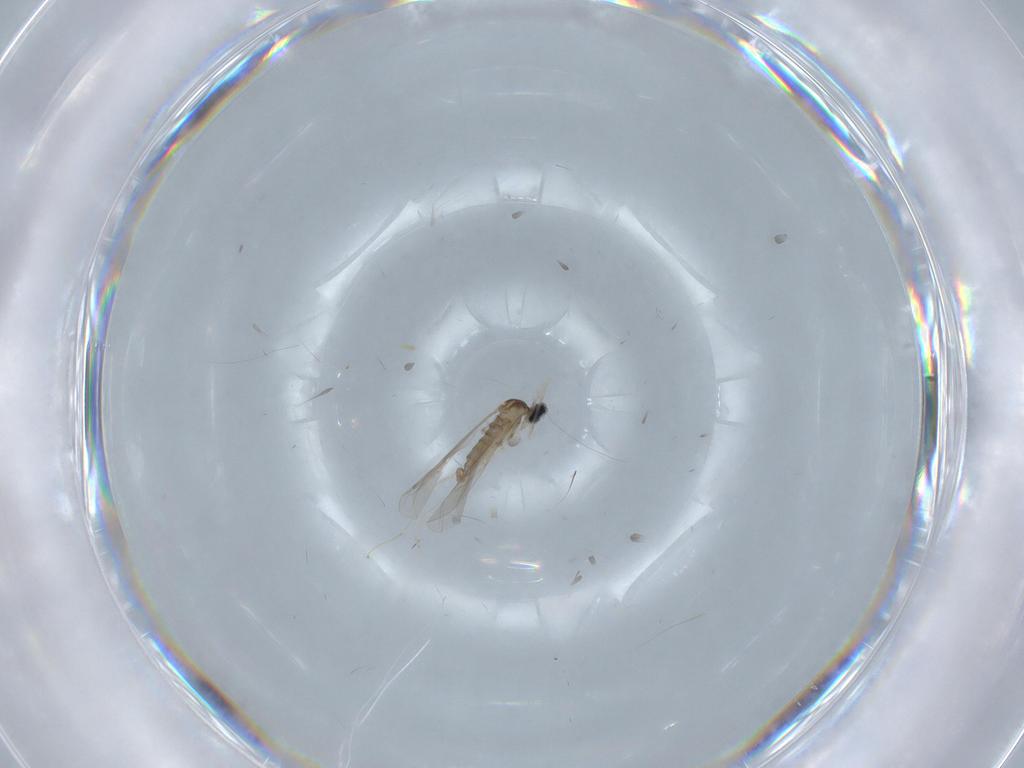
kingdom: Animalia
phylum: Arthropoda
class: Insecta
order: Diptera
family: Cecidomyiidae
